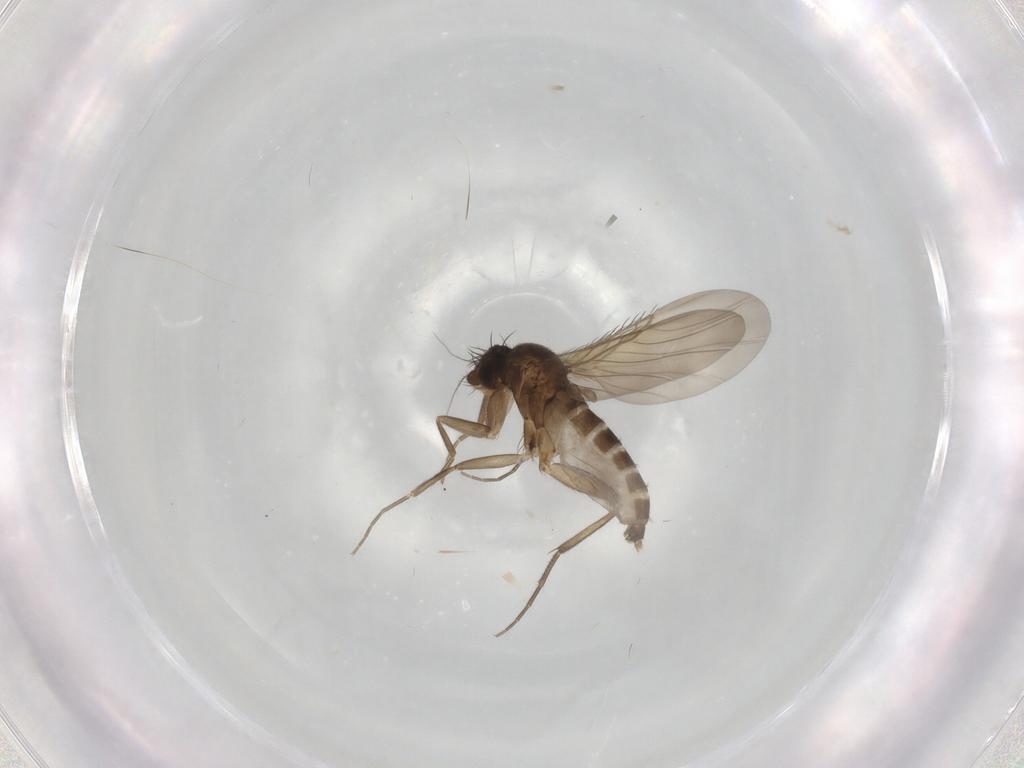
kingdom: Animalia
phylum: Arthropoda
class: Insecta
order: Diptera
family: Phoridae
